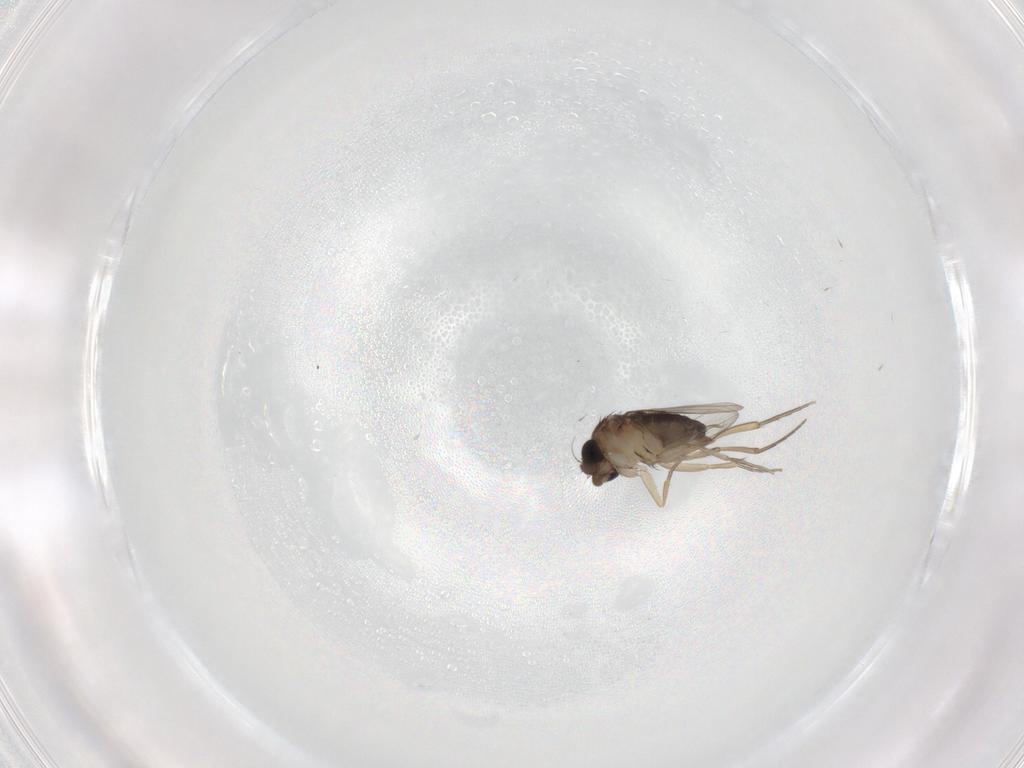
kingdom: Animalia
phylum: Arthropoda
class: Insecta
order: Diptera
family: Phoridae
